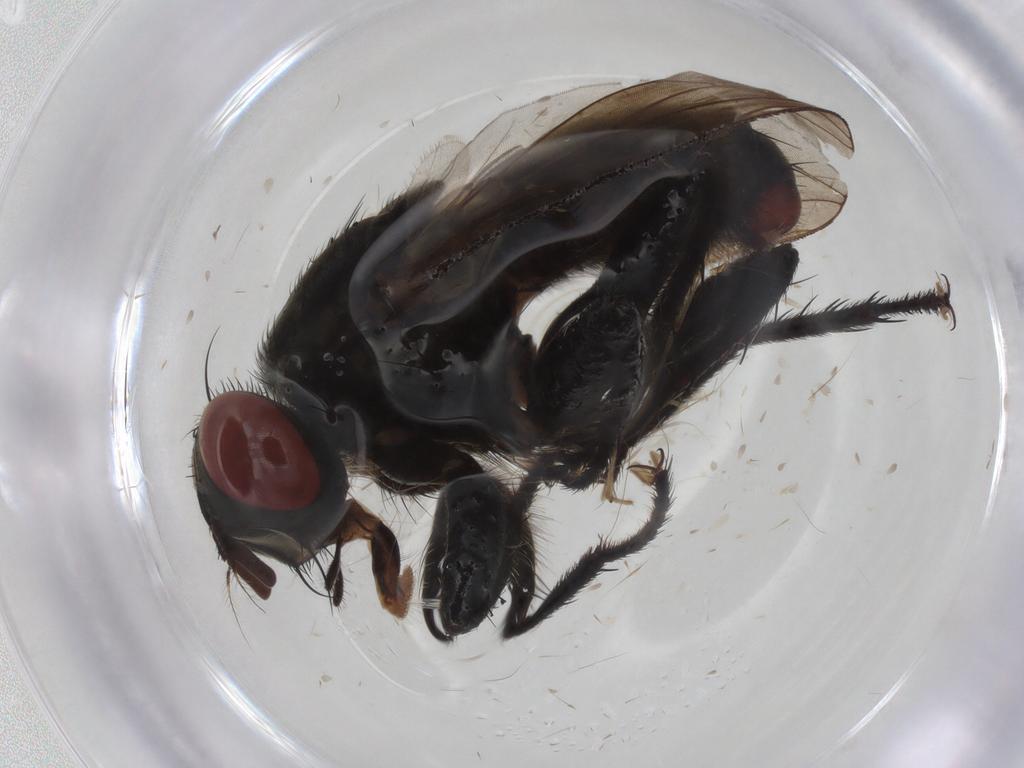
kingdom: Animalia
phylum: Arthropoda
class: Insecta
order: Diptera
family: Sarcophagidae
